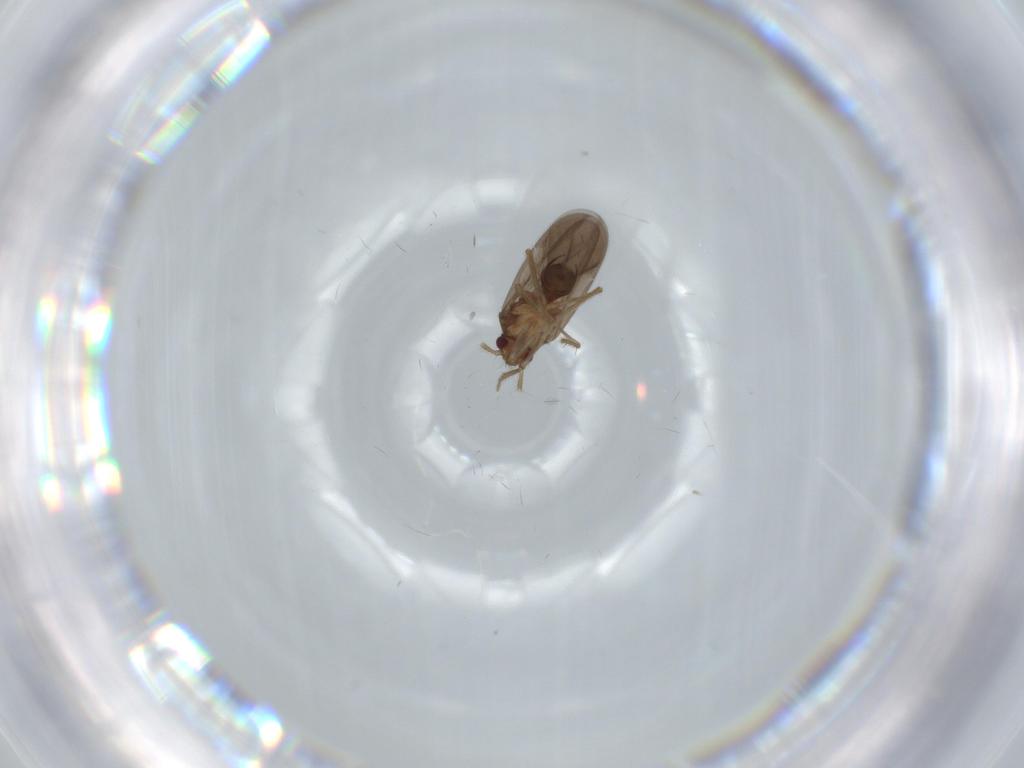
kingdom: Animalia
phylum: Arthropoda
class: Insecta
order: Hemiptera
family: Ceratocombidae
